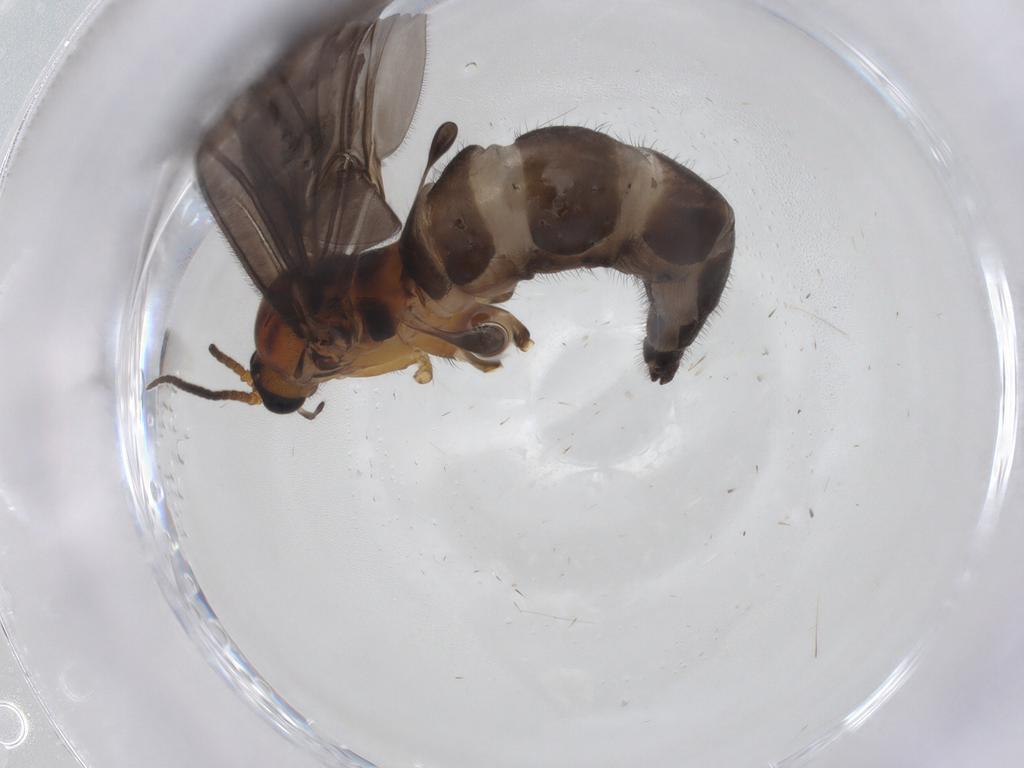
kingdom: Animalia
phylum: Arthropoda
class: Insecta
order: Diptera
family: Sciaridae
